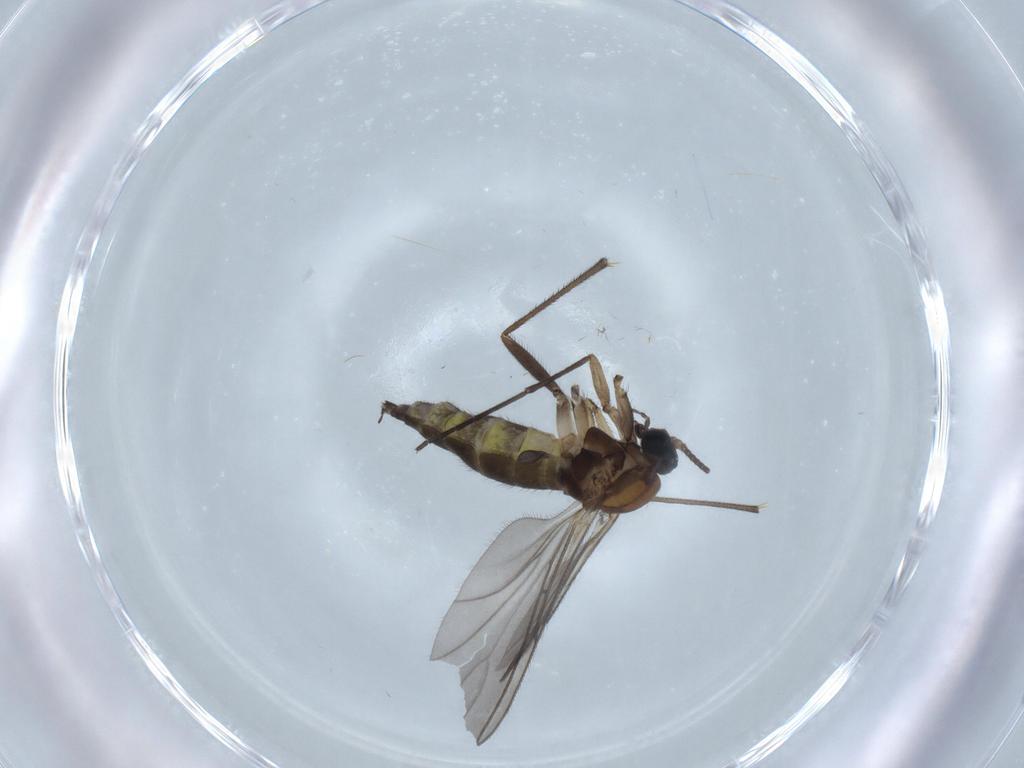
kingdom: Animalia
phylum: Arthropoda
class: Insecta
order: Diptera
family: Sciaridae
